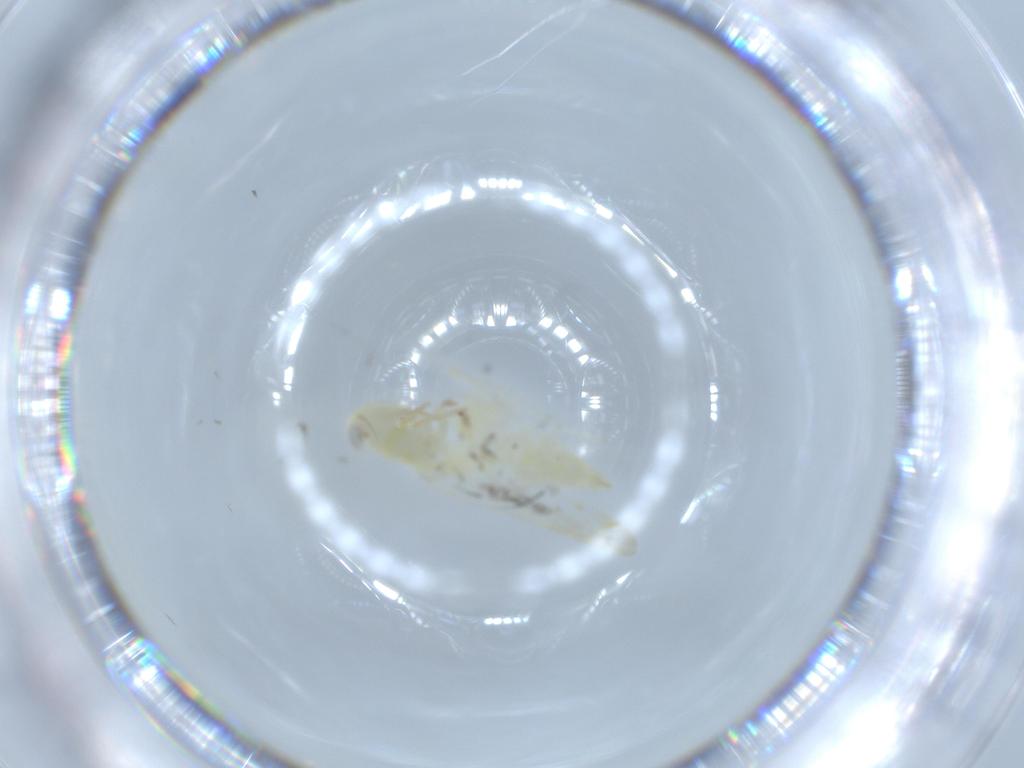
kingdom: Animalia
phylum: Arthropoda
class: Insecta
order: Hemiptera
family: Cicadellidae
